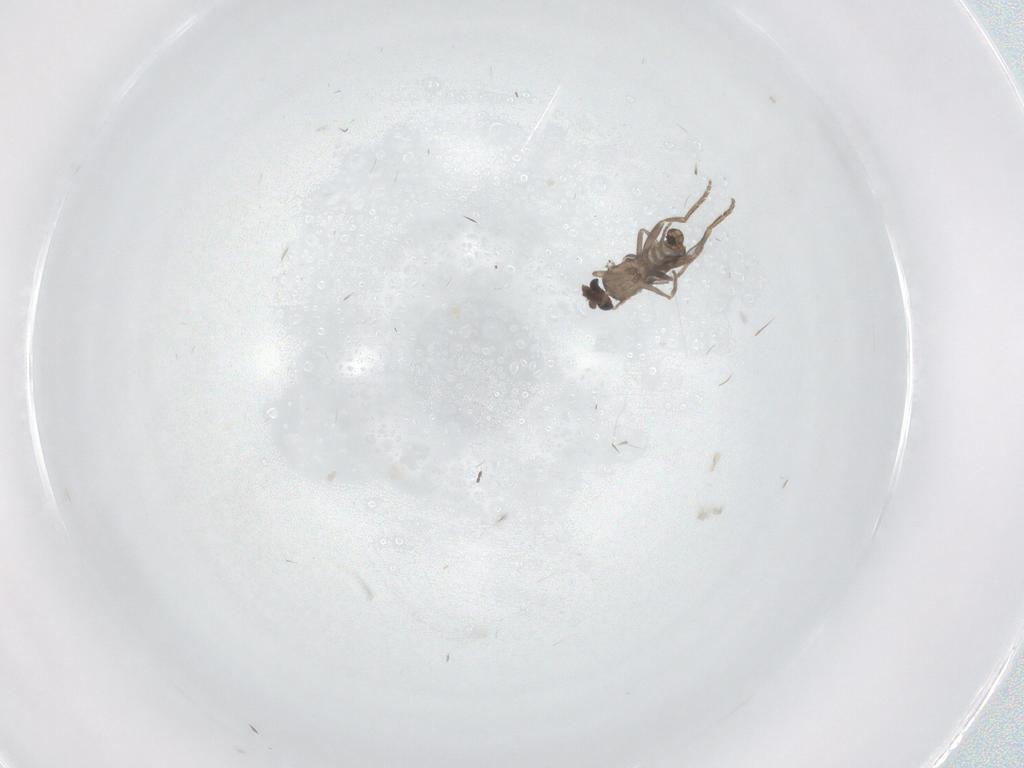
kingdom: Animalia
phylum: Arthropoda
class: Insecta
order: Diptera
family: Cecidomyiidae
